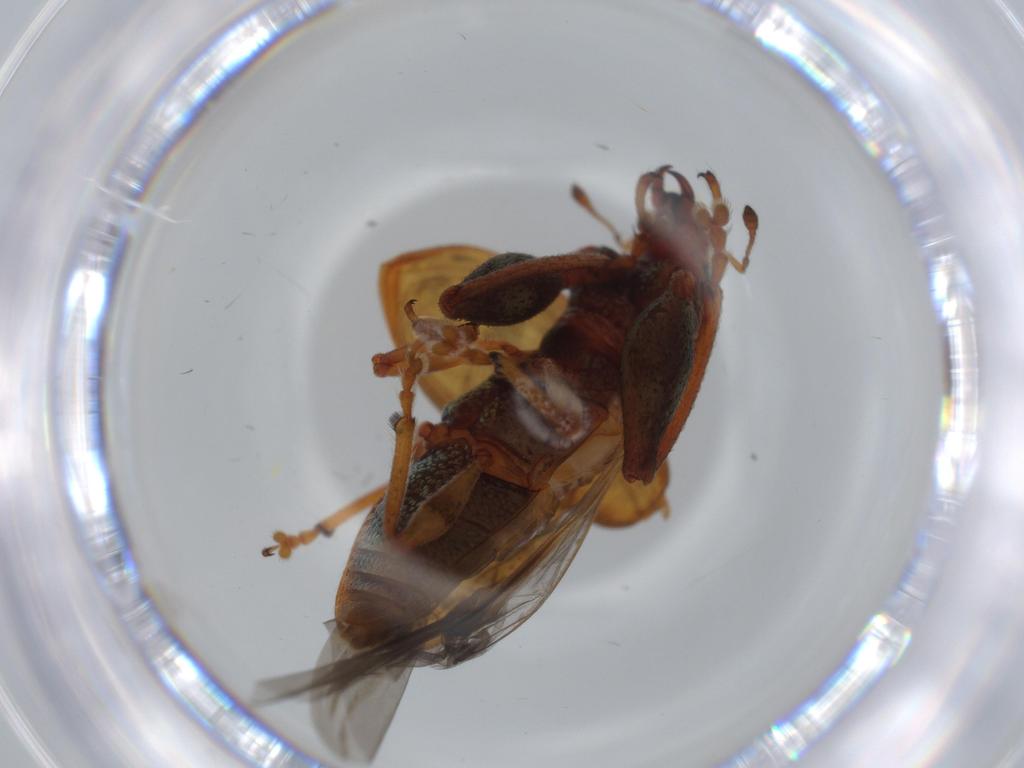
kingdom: Animalia
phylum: Arthropoda
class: Insecta
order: Coleoptera
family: Curculionidae
